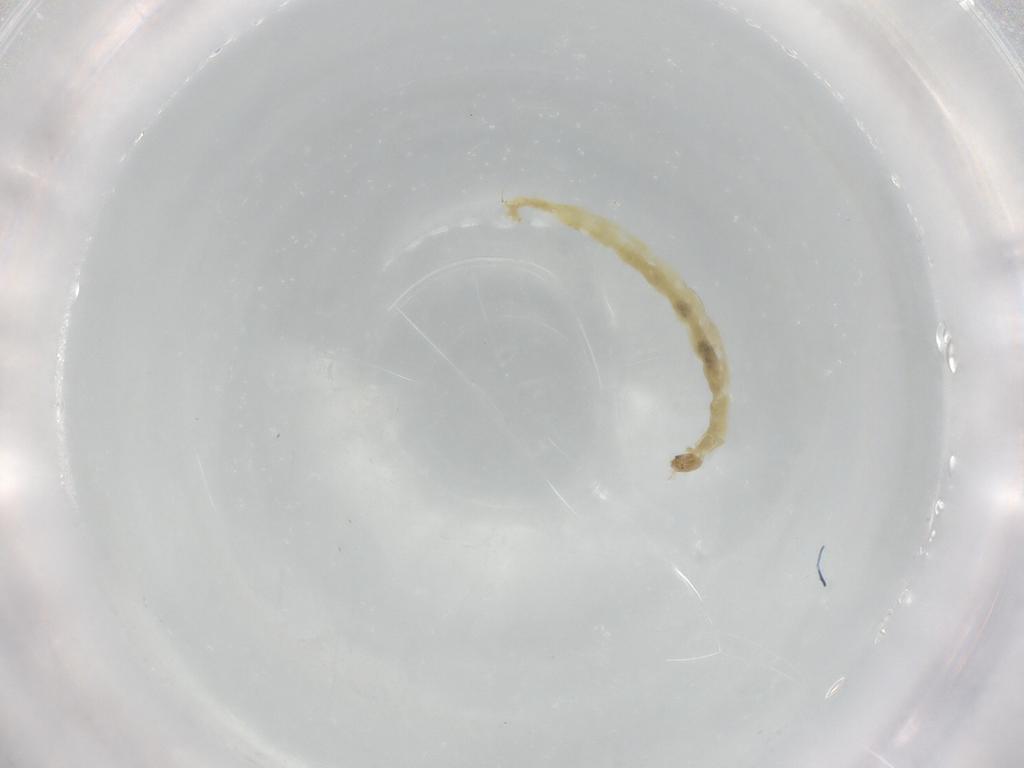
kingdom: Animalia
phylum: Arthropoda
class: Insecta
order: Diptera
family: Chironomidae
